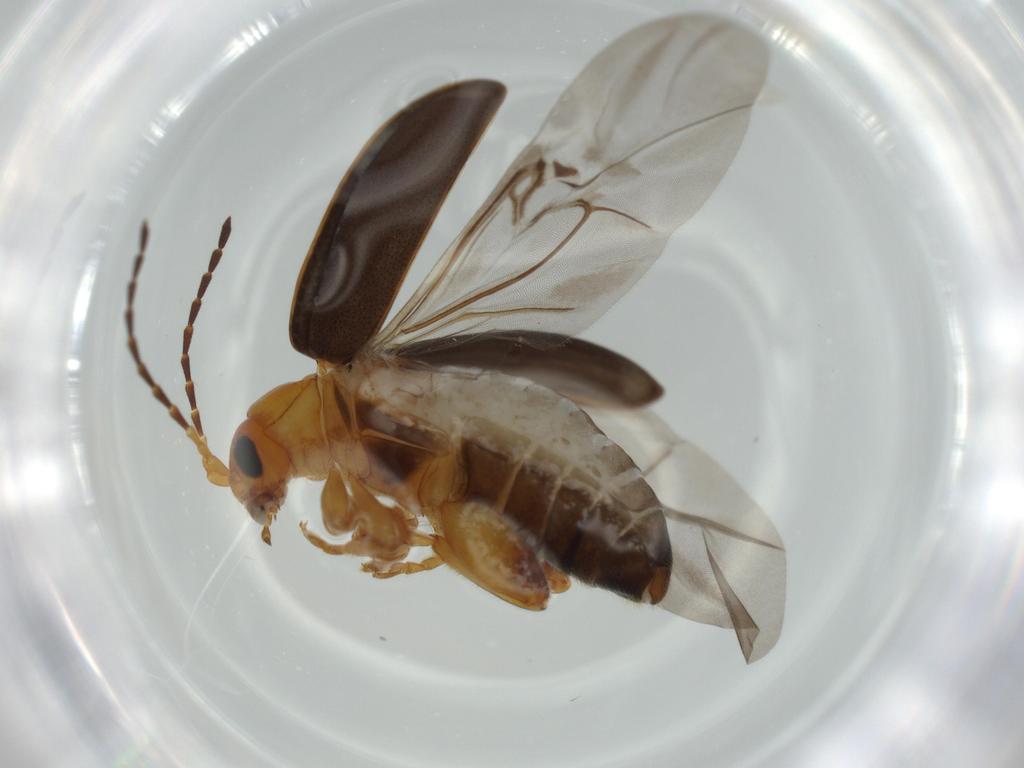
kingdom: Animalia
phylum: Arthropoda
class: Insecta
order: Coleoptera
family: Chrysomelidae
